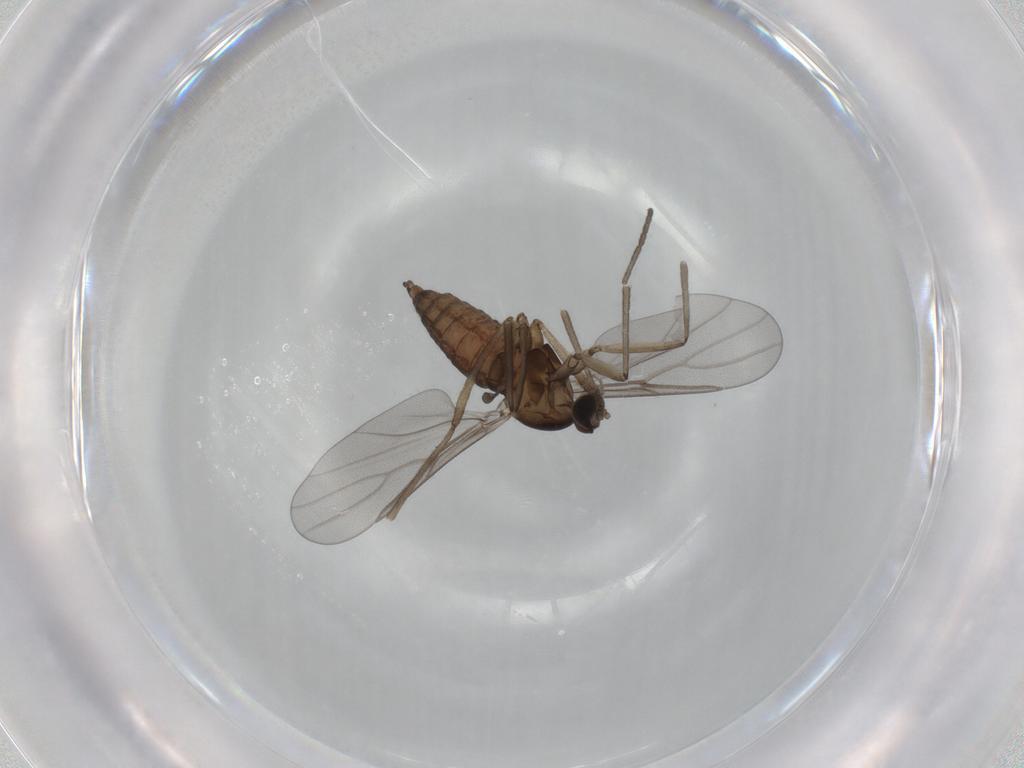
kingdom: Animalia
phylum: Arthropoda
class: Insecta
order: Diptera
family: Cecidomyiidae
